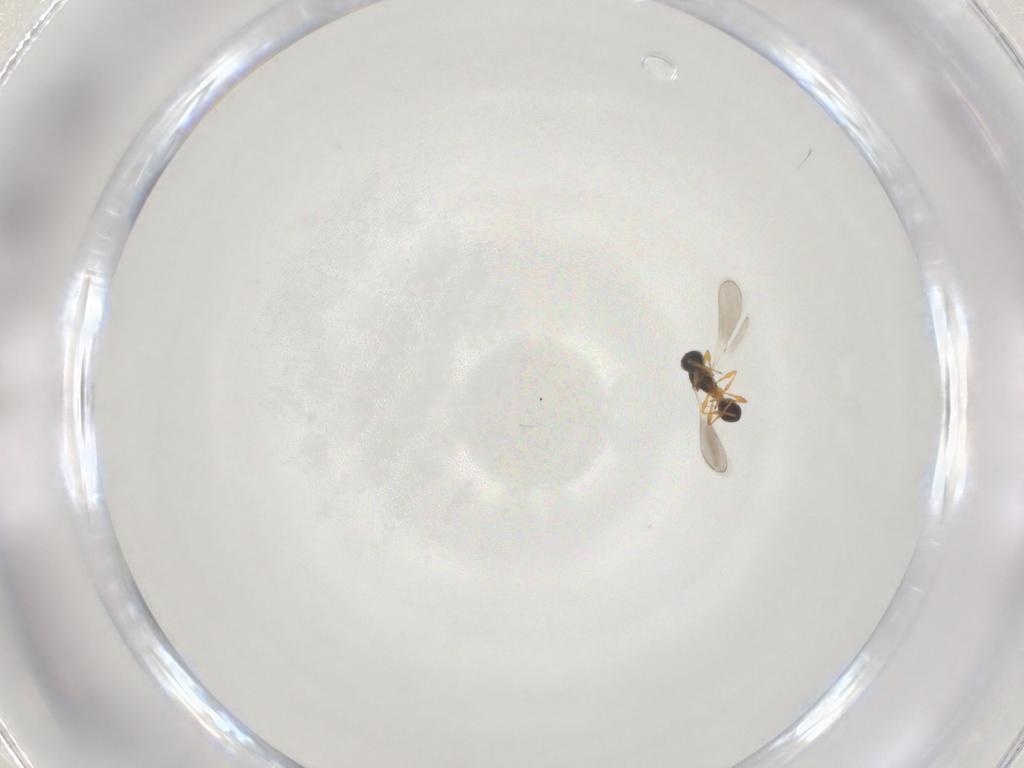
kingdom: Animalia
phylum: Arthropoda
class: Insecta
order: Hymenoptera
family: Platygastridae
